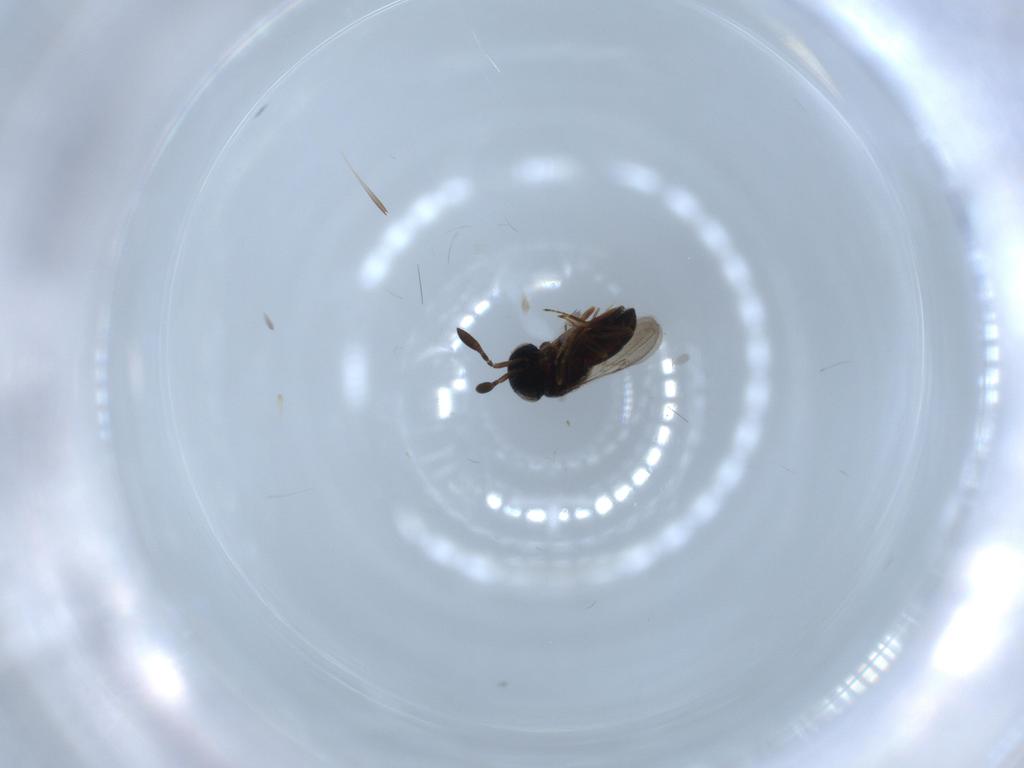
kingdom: Animalia
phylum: Arthropoda
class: Insecta
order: Coleoptera
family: Curculionidae
